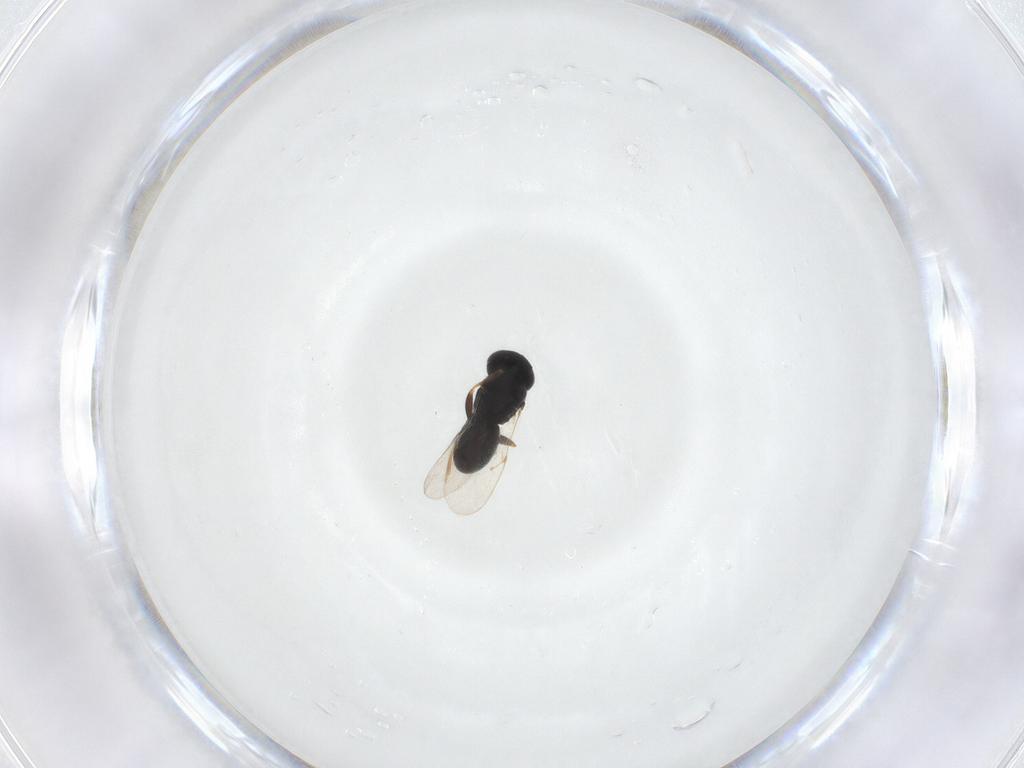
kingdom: Animalia
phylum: Arthropoda
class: Insecta
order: Hymenoptera
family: Scelionidae
